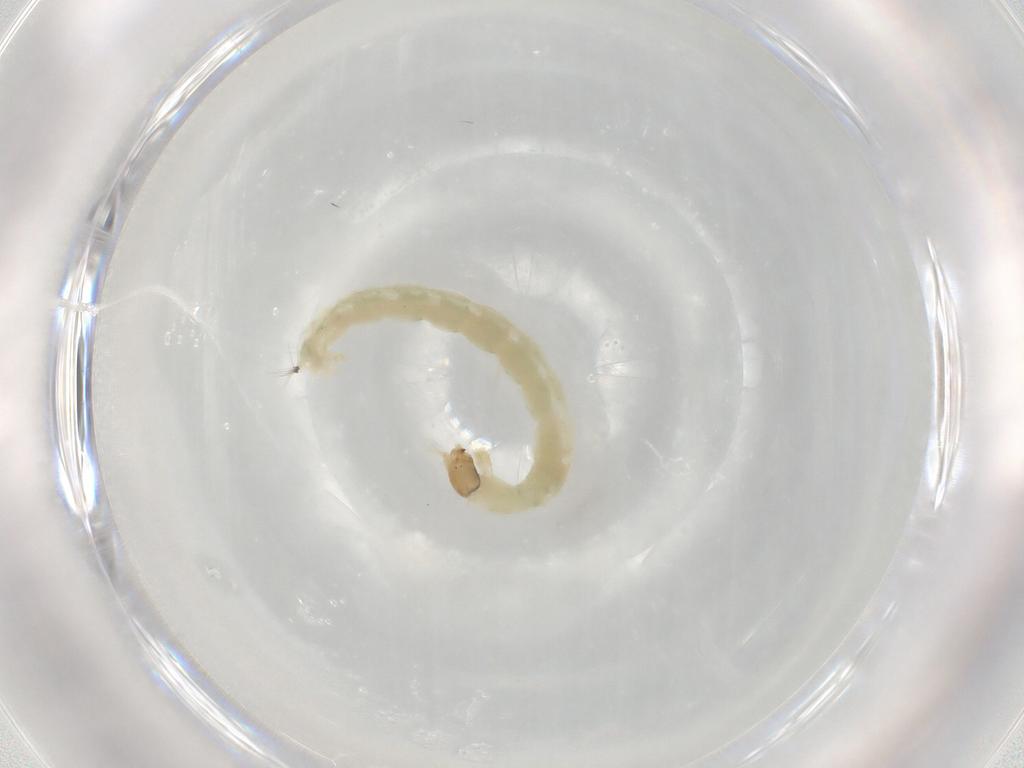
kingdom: Animalia
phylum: Arthropoda
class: Insecta
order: Diptera
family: Chironomidae
